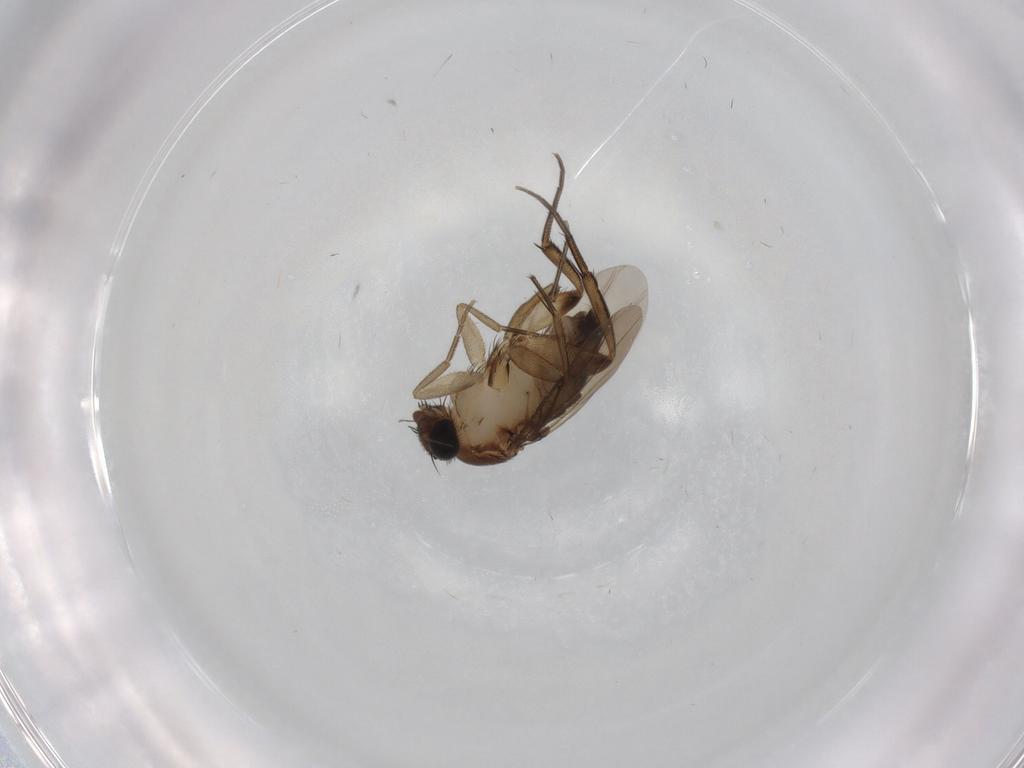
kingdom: Animalia
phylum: Arthropoda
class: Insecta
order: Diptera
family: Phoridae
